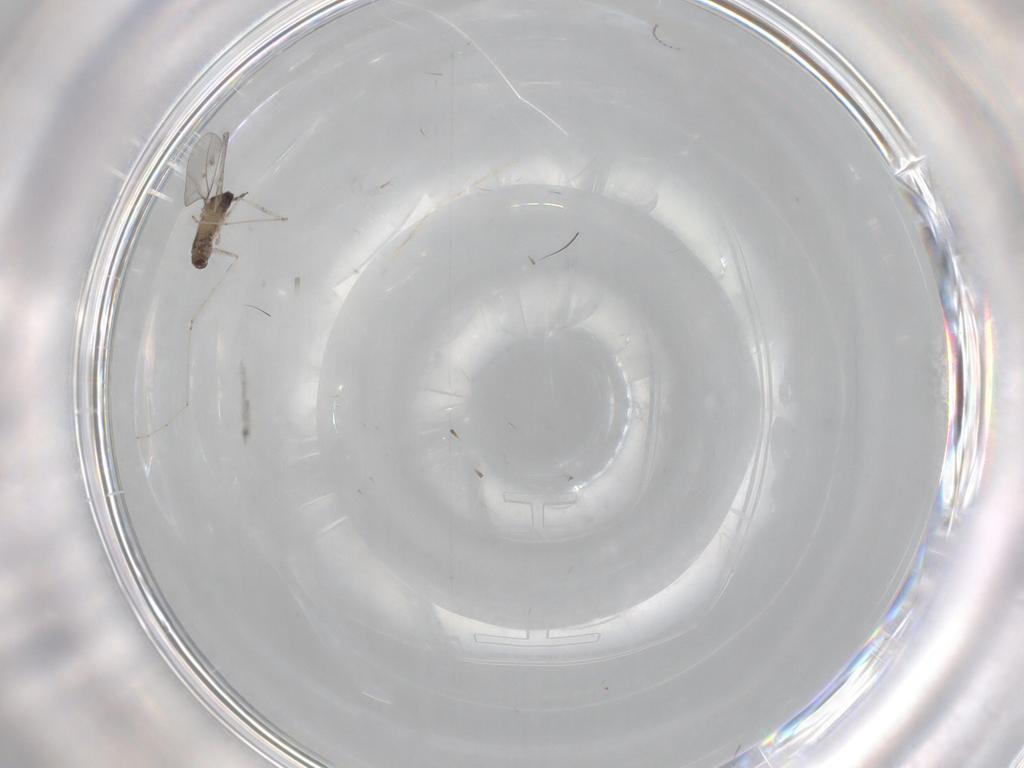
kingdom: Animalia
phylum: Arthropoda
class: Insecta
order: Diptera
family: Cecidomyiidae
